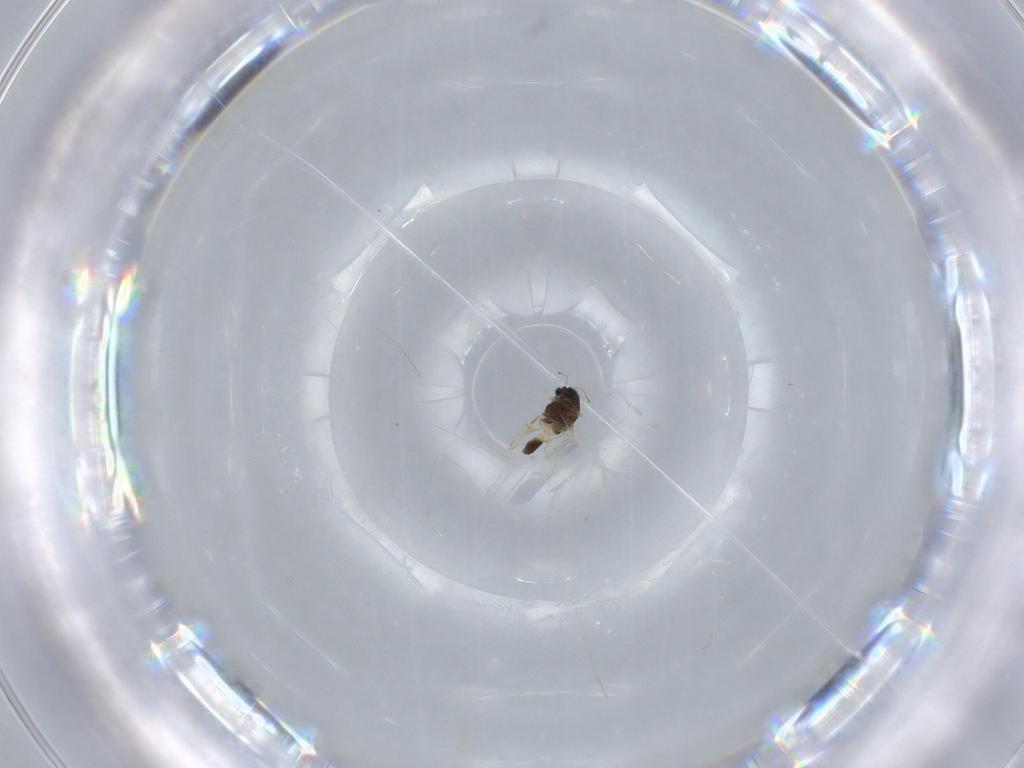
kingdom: Animalia
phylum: Arthropoda
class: Insecta
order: Diptera
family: Chironomidae
